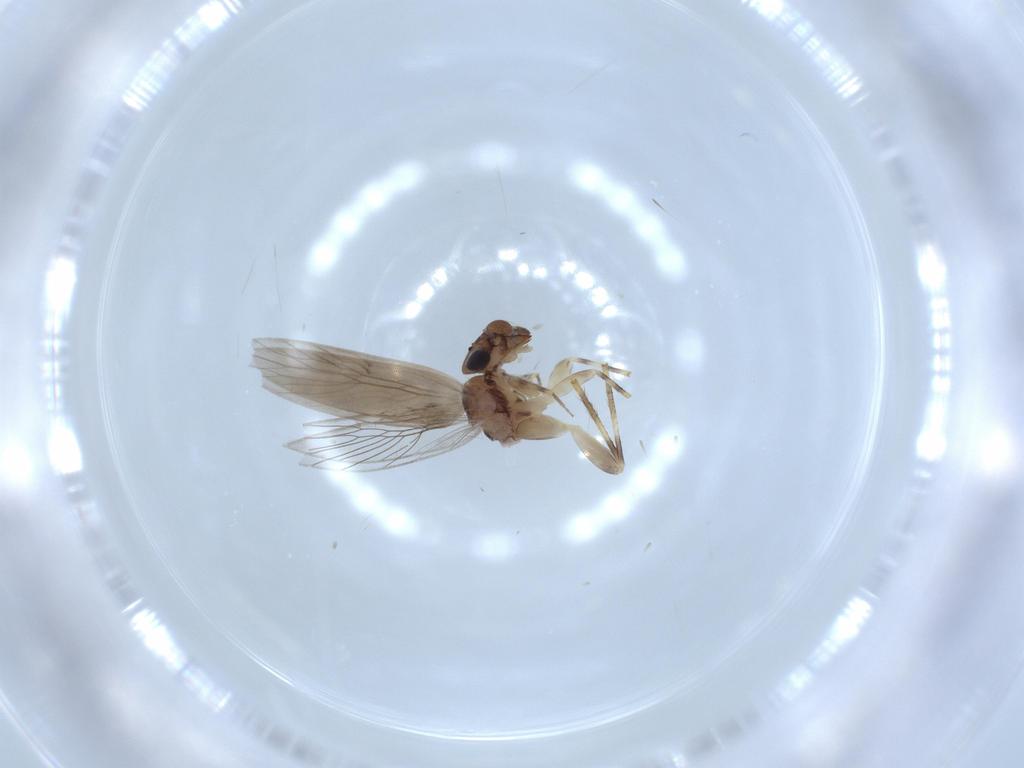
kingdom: Animalia
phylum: Arthropoda
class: Insecta
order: Psocodea
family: Lepidopsocidae
